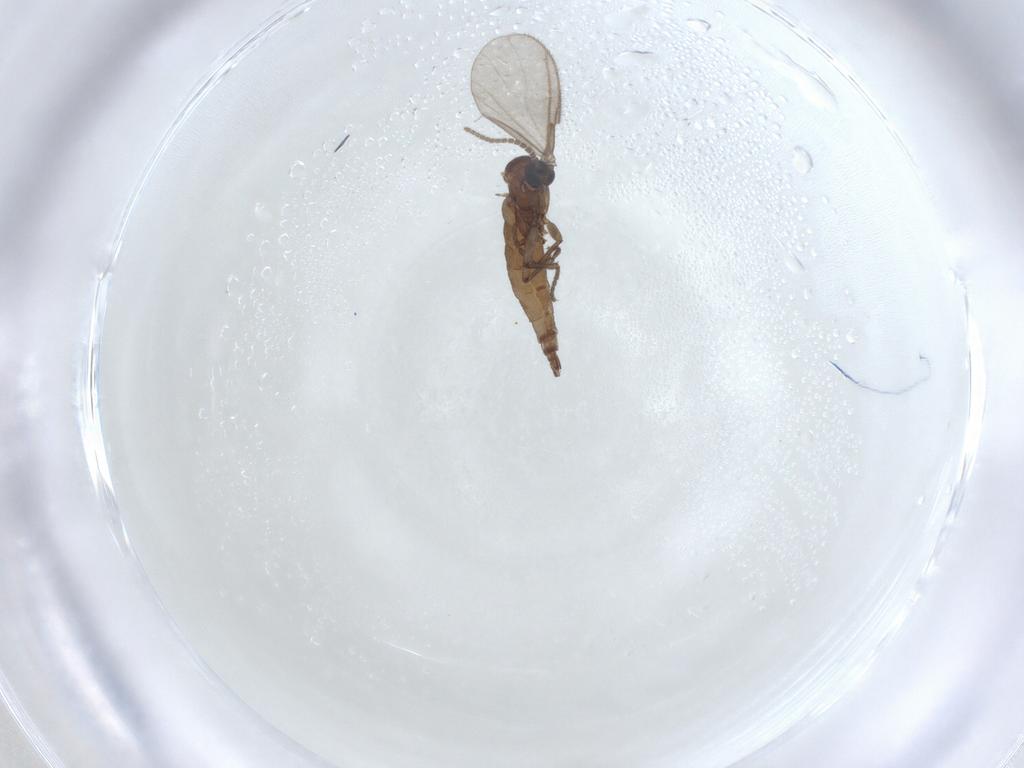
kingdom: Animalia
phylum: Arthropoda
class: Insecta
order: Diptera
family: Sciaridae
